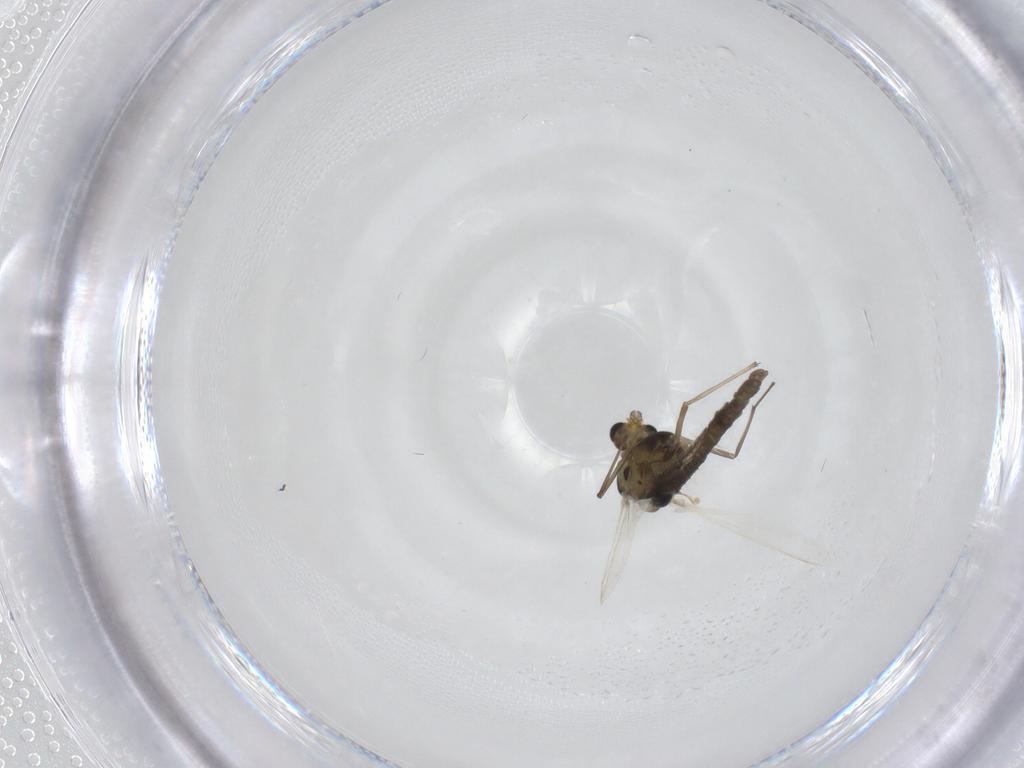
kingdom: Animalia
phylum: Arthropoda
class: Insecta
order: Diptera
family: Chironomidae
